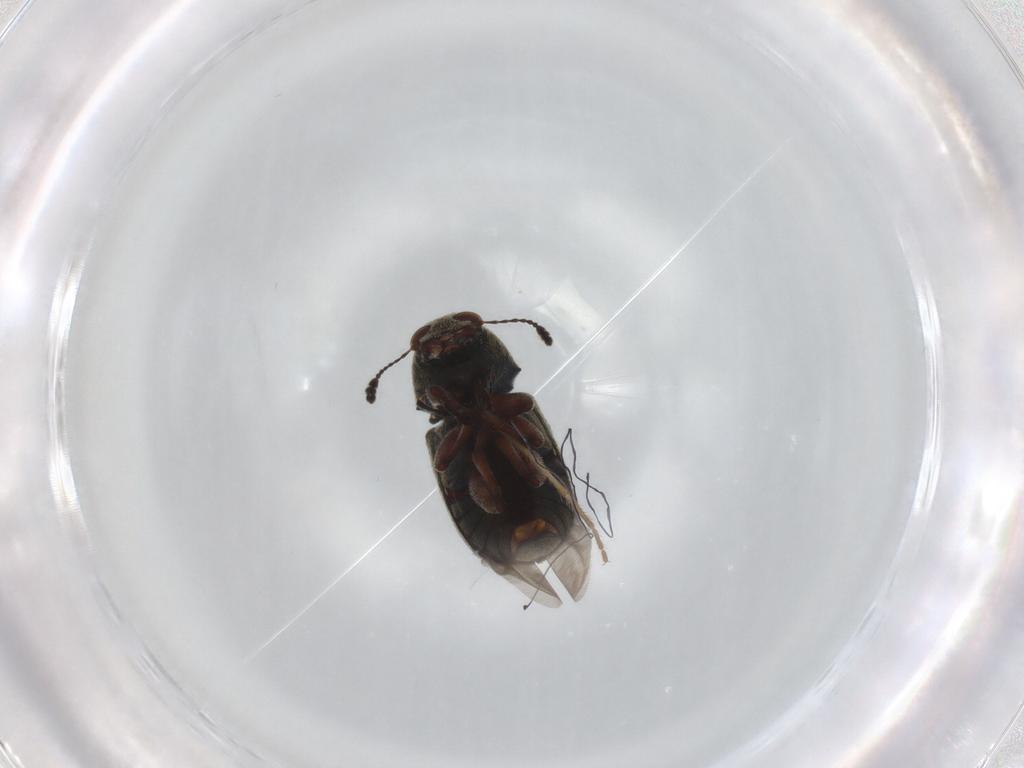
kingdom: Animalia
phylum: Arthropoda
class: Insecta
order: Coleoptera
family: Anthribidae
